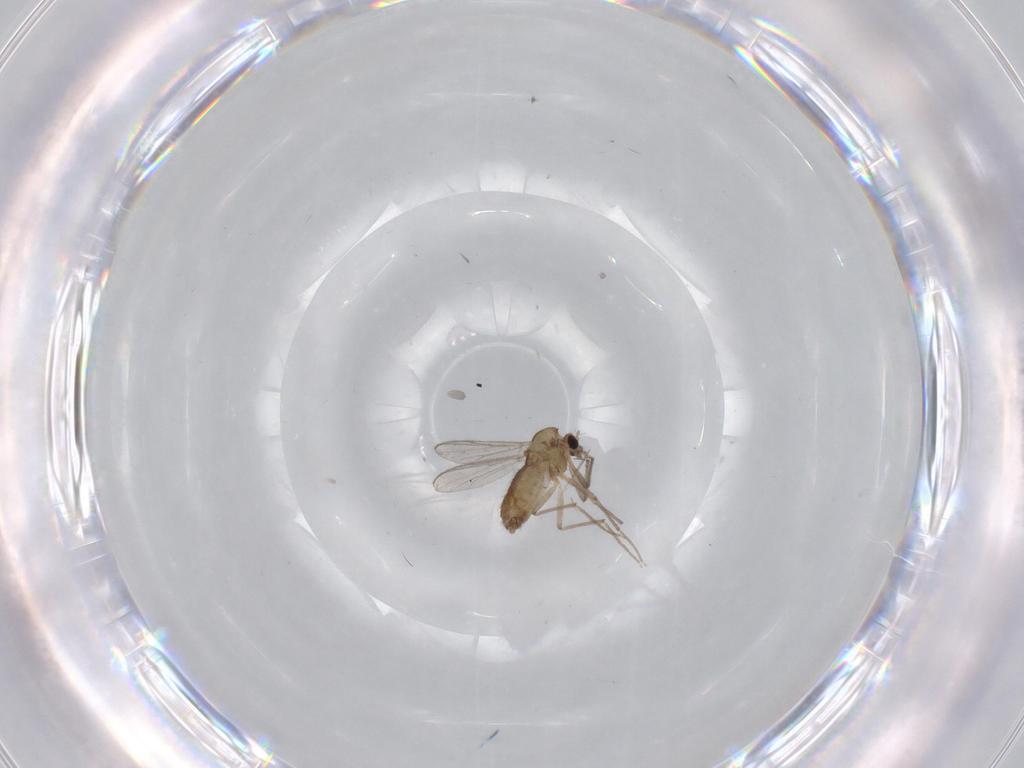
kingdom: Animalia
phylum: Arthropoda
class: Insecta
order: Diptera
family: Chironomidae
